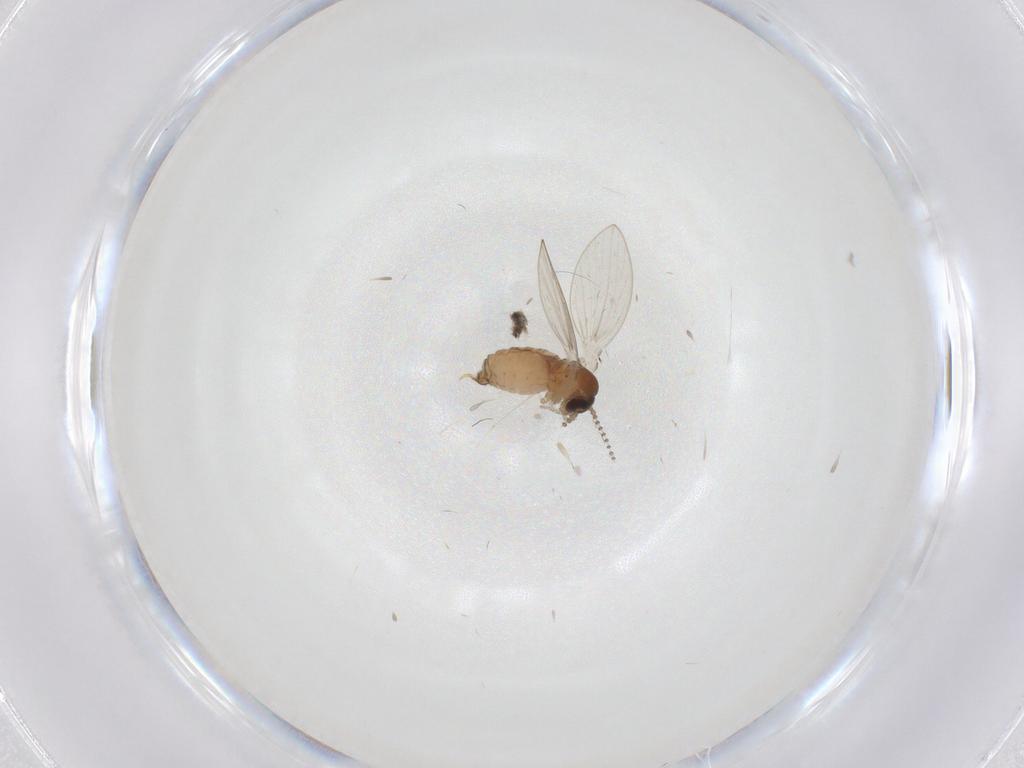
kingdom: Animalia
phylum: Arthropoda
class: Insecta
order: Diptera
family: Psychodidae
